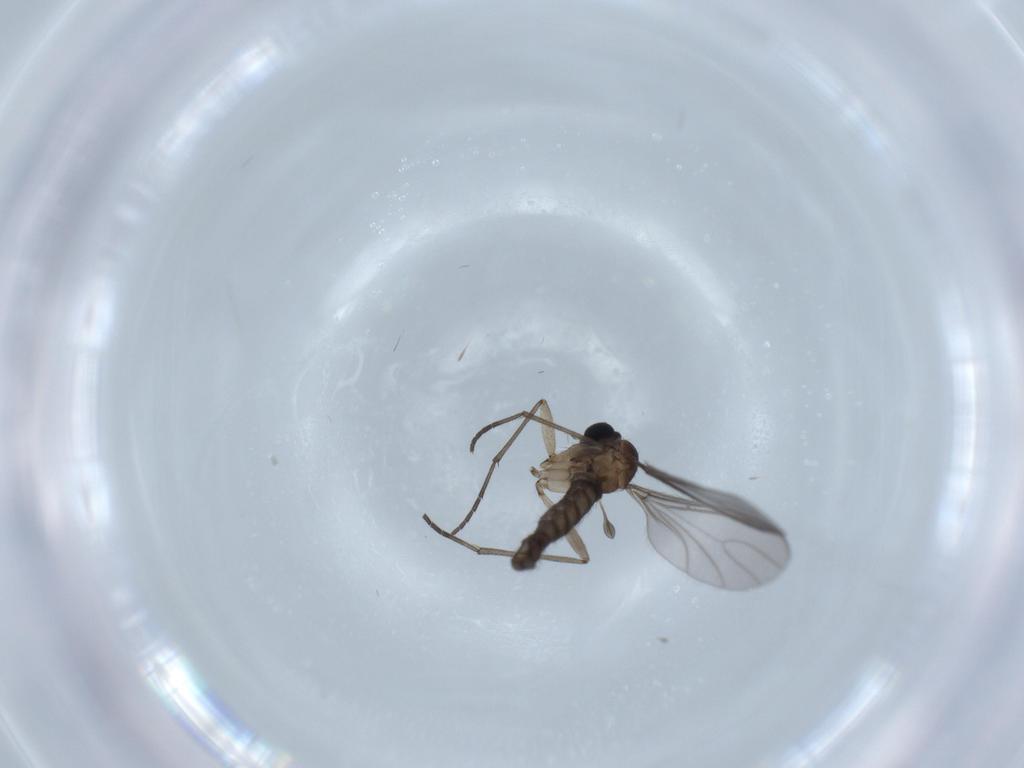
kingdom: Animalia
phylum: Arthropoda
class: Insecta
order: Diptera
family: Sciaridae
